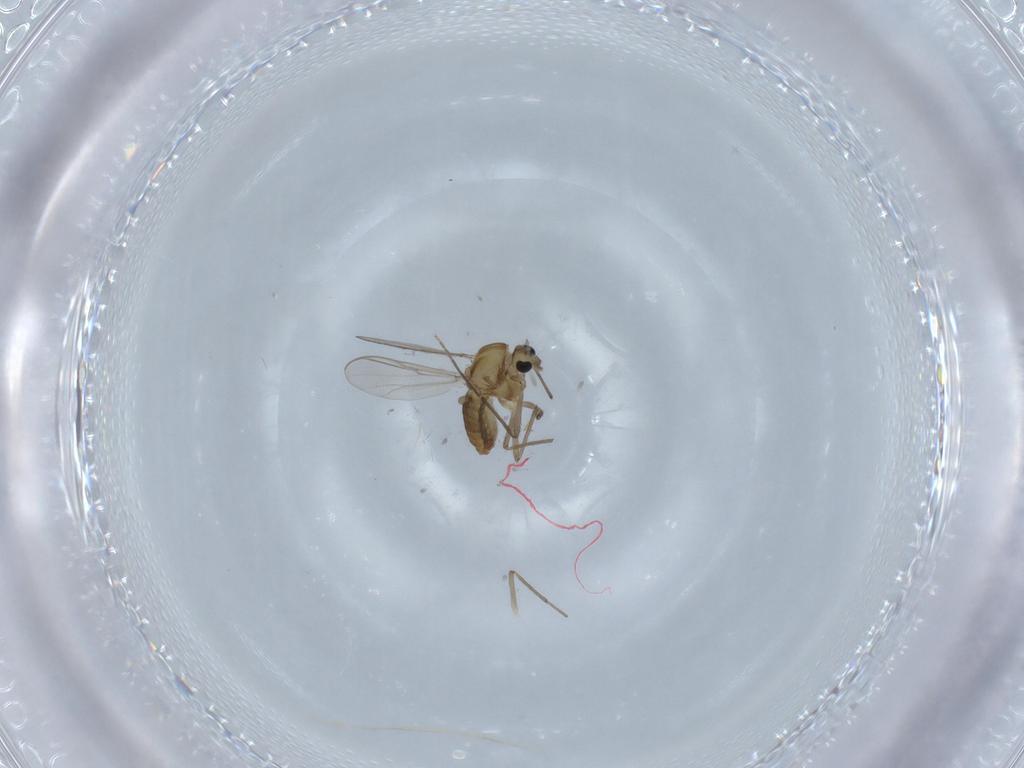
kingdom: Animalia
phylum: Arthropoda
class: Insecta
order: Diptera
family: Chironomidae
